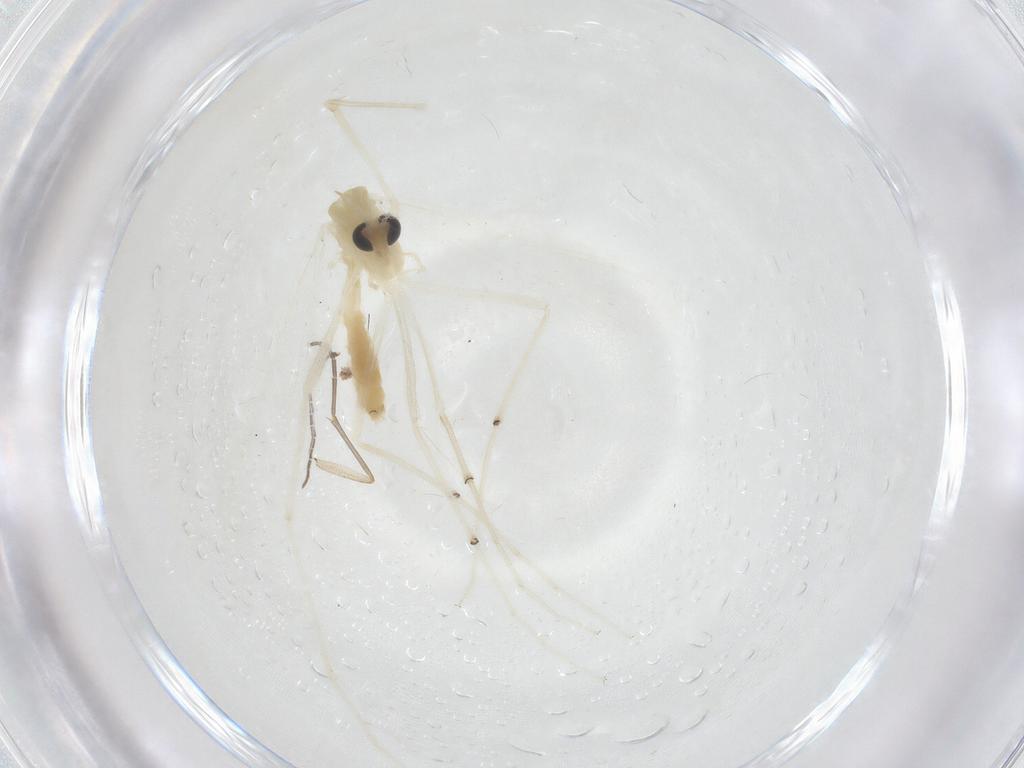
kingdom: Animalia
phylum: Arthropoda
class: Insecta
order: Diptera
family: Chironomidae
